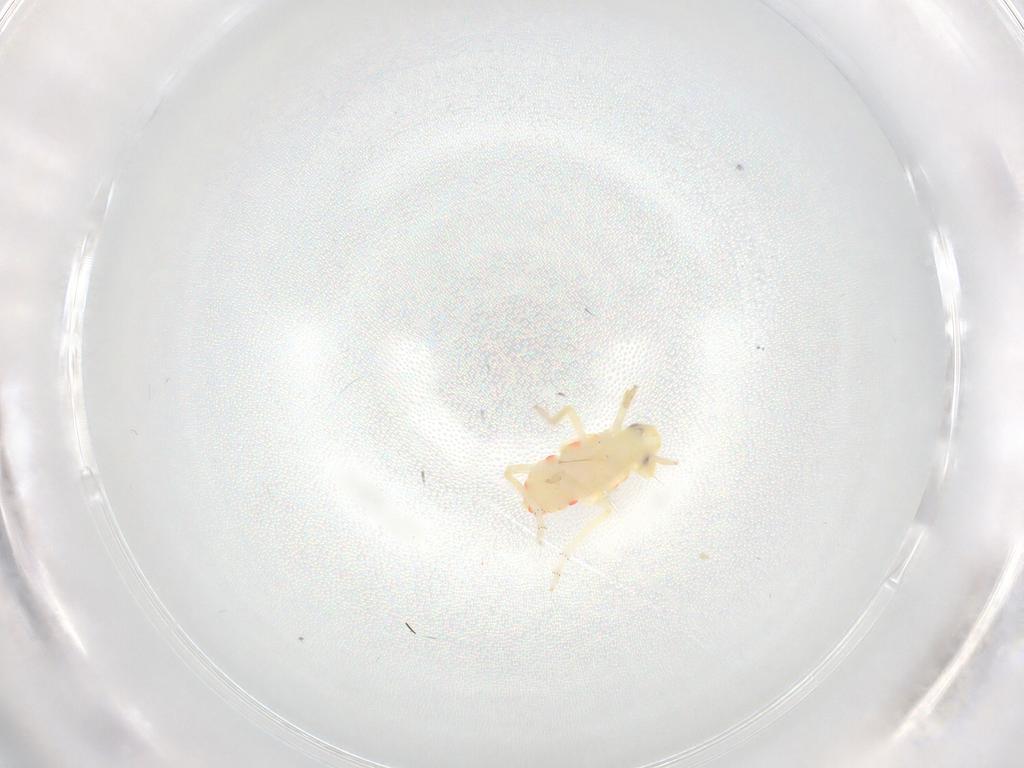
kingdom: Animalia
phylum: Arthropoda
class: Insecta
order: Hemiptera
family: Tropiduchidae
